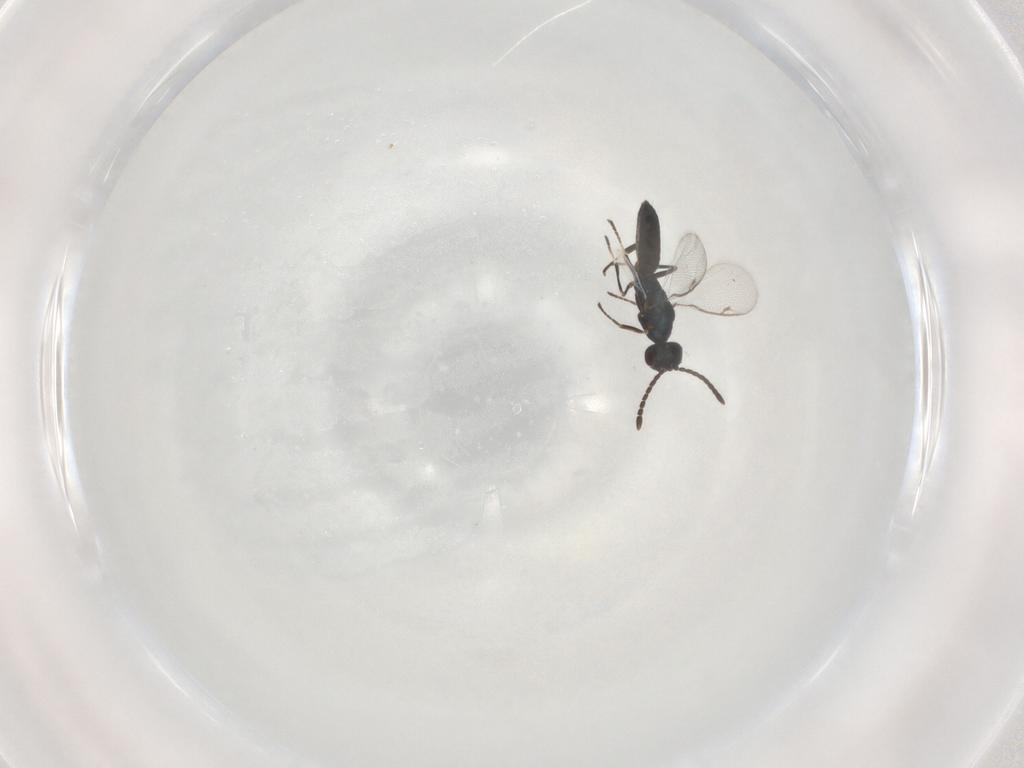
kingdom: Animalia
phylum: Arthropoda
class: Insecta
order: Hymenoptera
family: Eupelmidae
